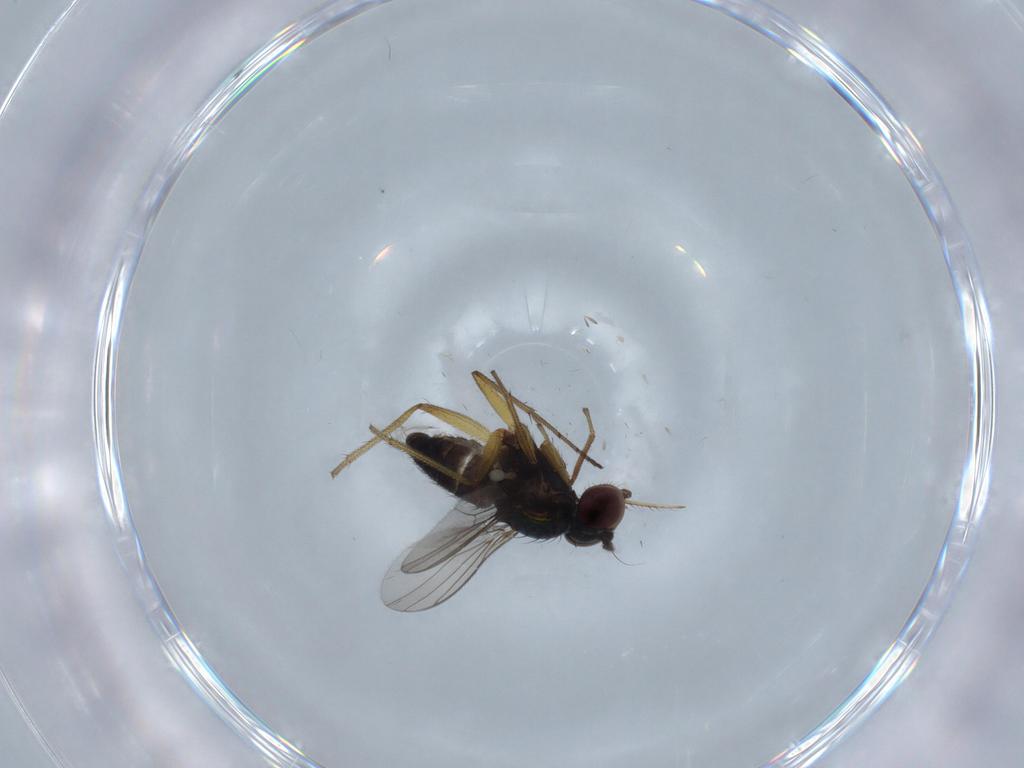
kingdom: Animalia
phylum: Arthropoda
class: Insecta
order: Diptera
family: Dolichopodidae
